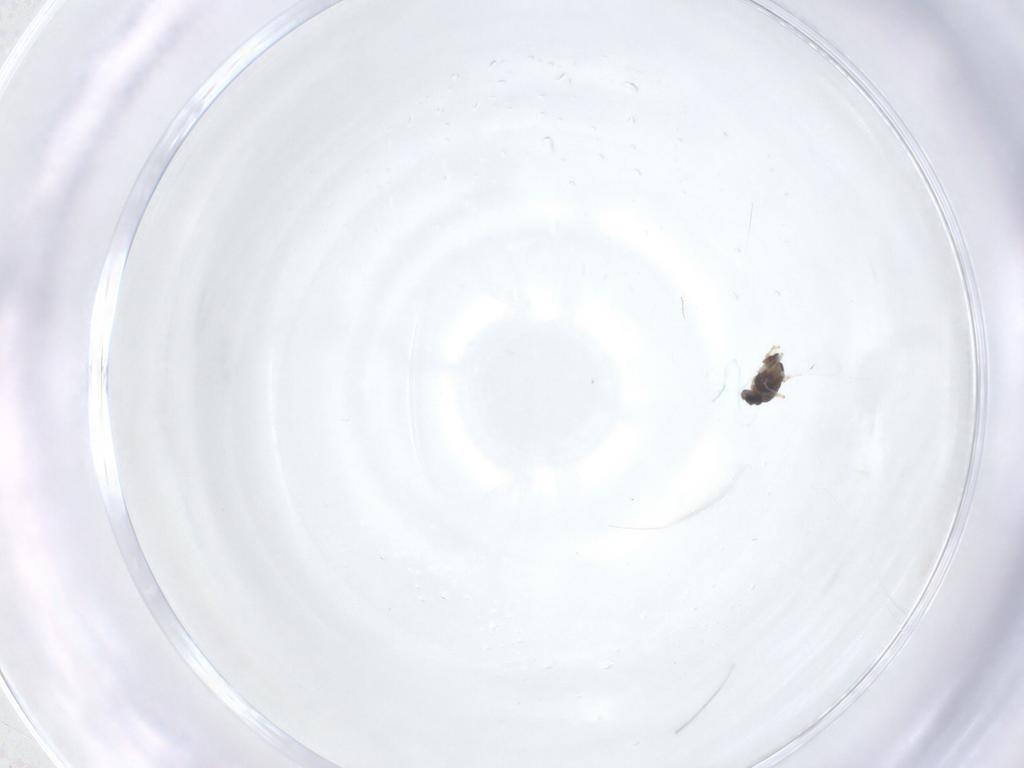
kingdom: Animalia
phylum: Arthropoda
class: Insecta
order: Diptera
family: Chironomidae
